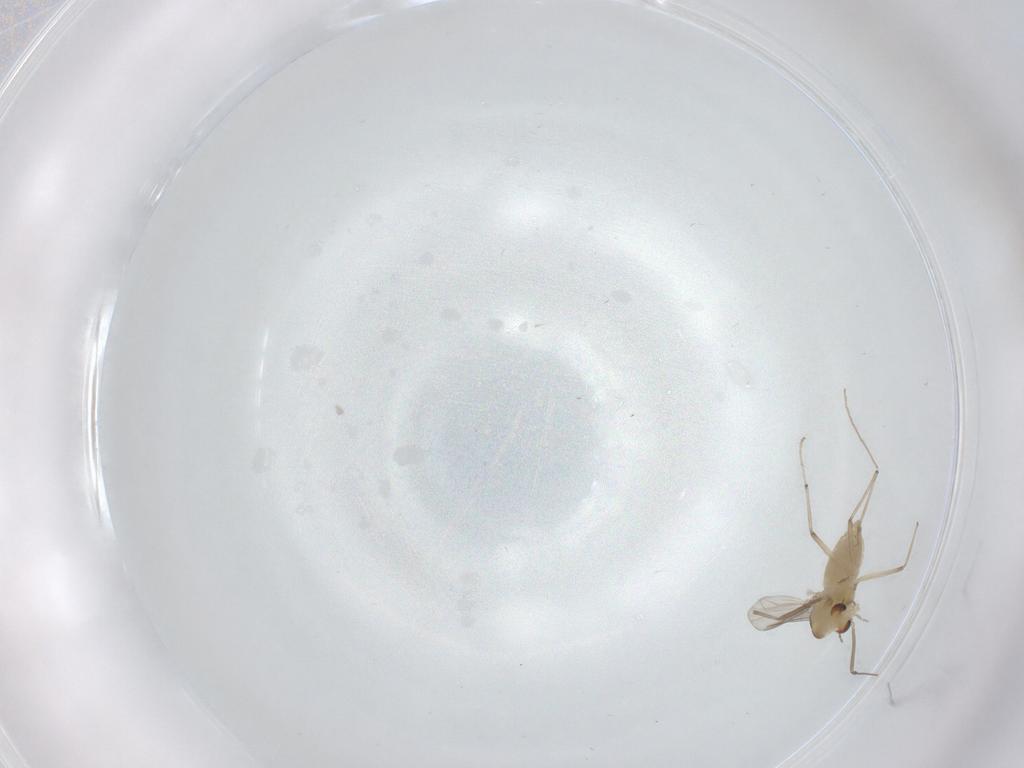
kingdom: Animalia
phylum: Arthropoda
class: Insecta
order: Diptera
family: Chironomidae
